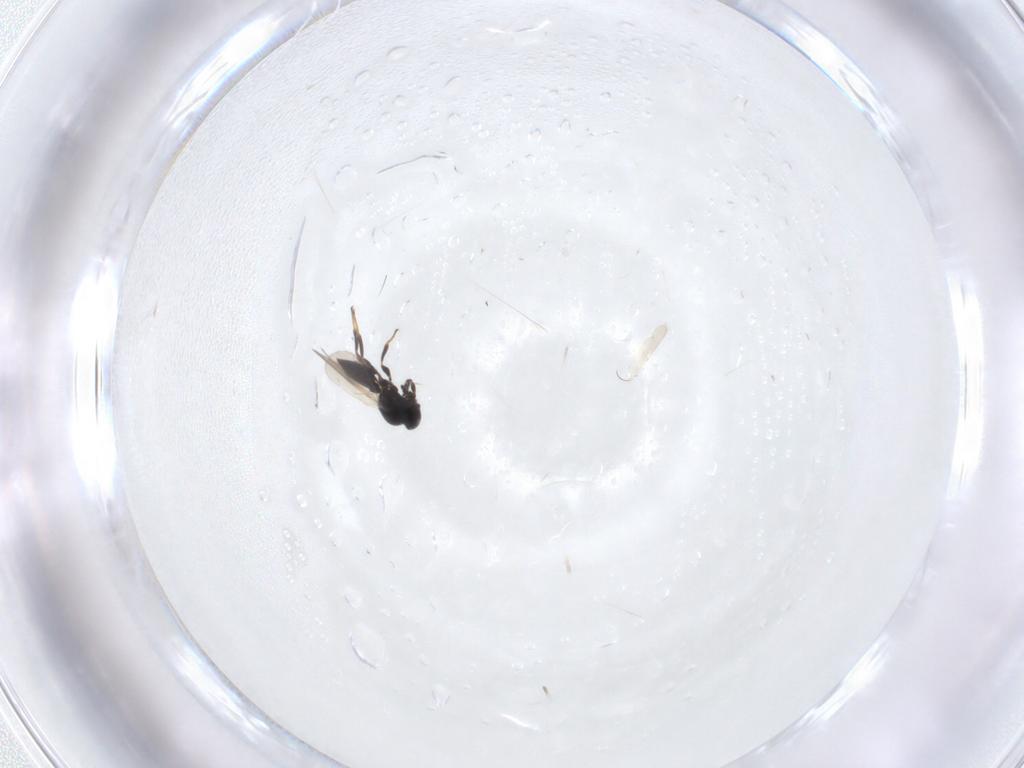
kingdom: Animalia
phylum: Arthropoda
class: Insecta
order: Hymenoptera
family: Platygastridae
